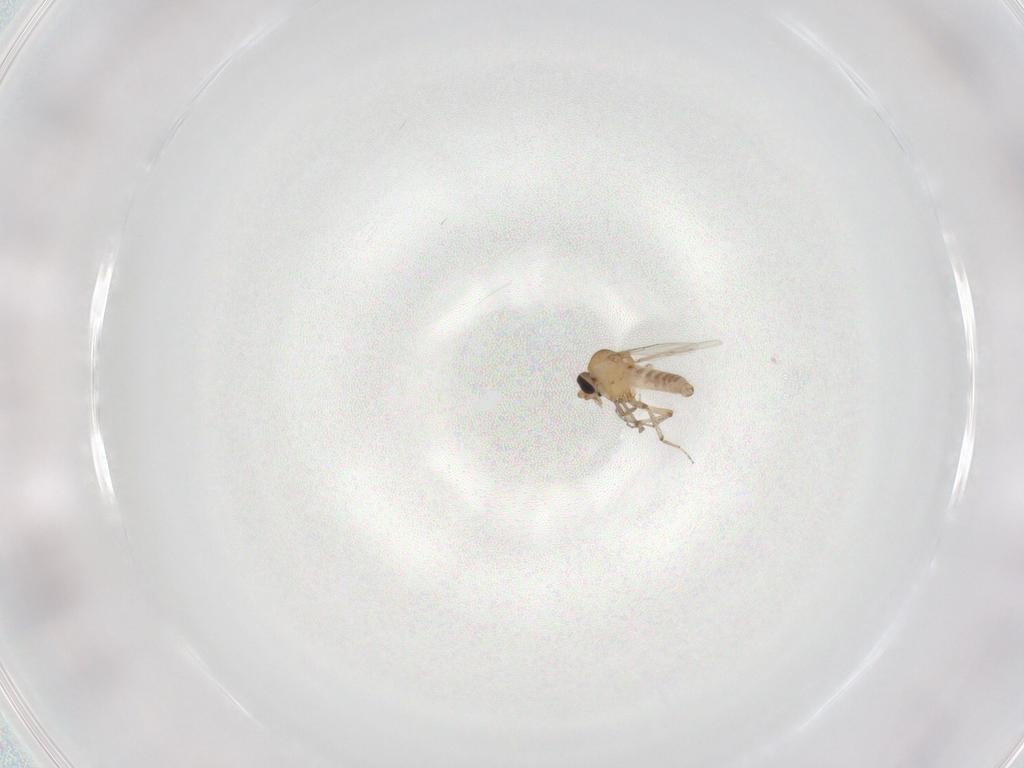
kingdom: Animalia
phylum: Arthropoda
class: Insecta
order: Diptera
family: Ceratopogonidae
